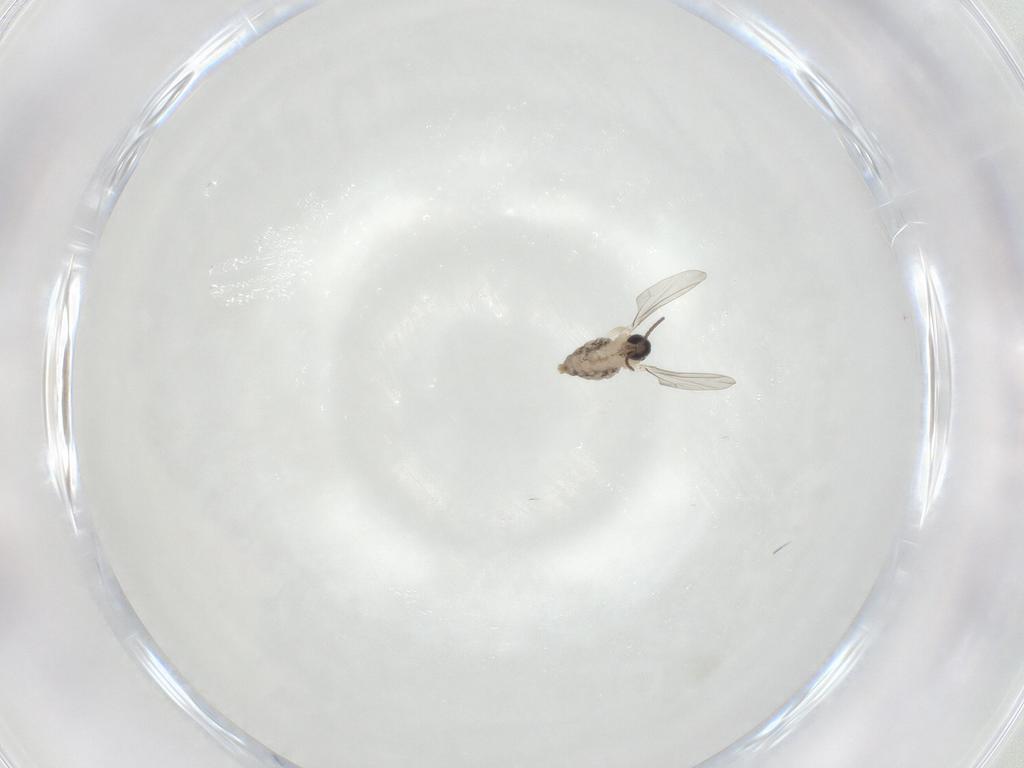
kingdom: Animalia
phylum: Arthropoda
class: Insecta
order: Diptera
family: Cecidomyiidae
